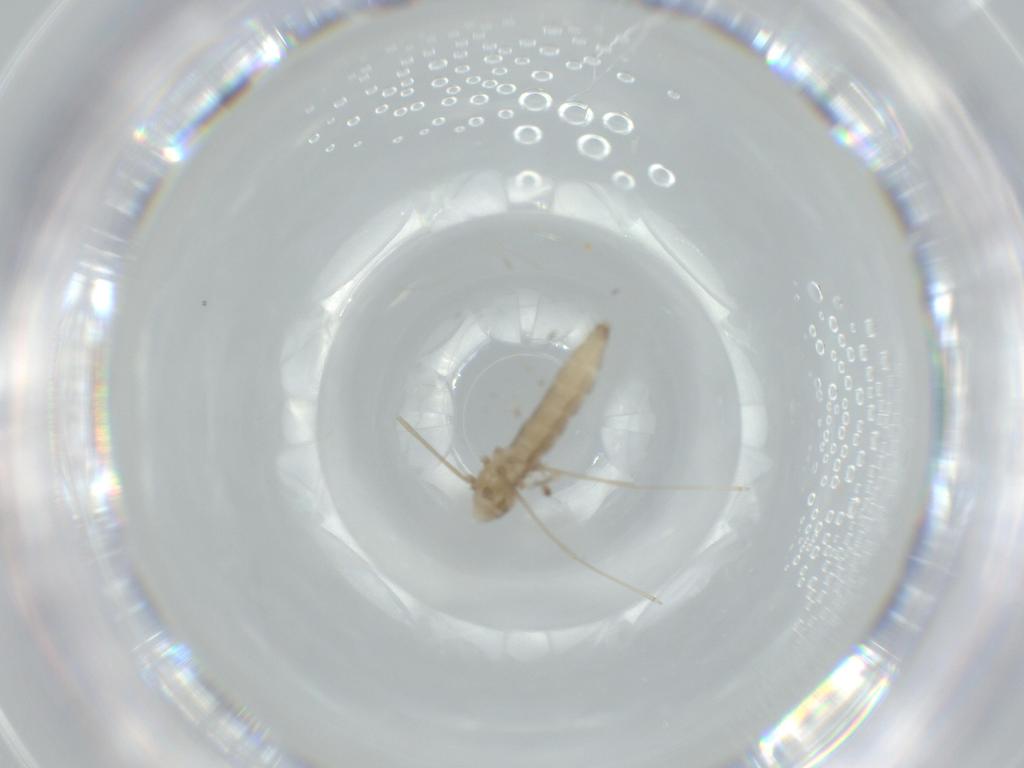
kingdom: Animalia
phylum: Arthropoda
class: Insecta
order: Diptera
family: Cecidomyiidae
